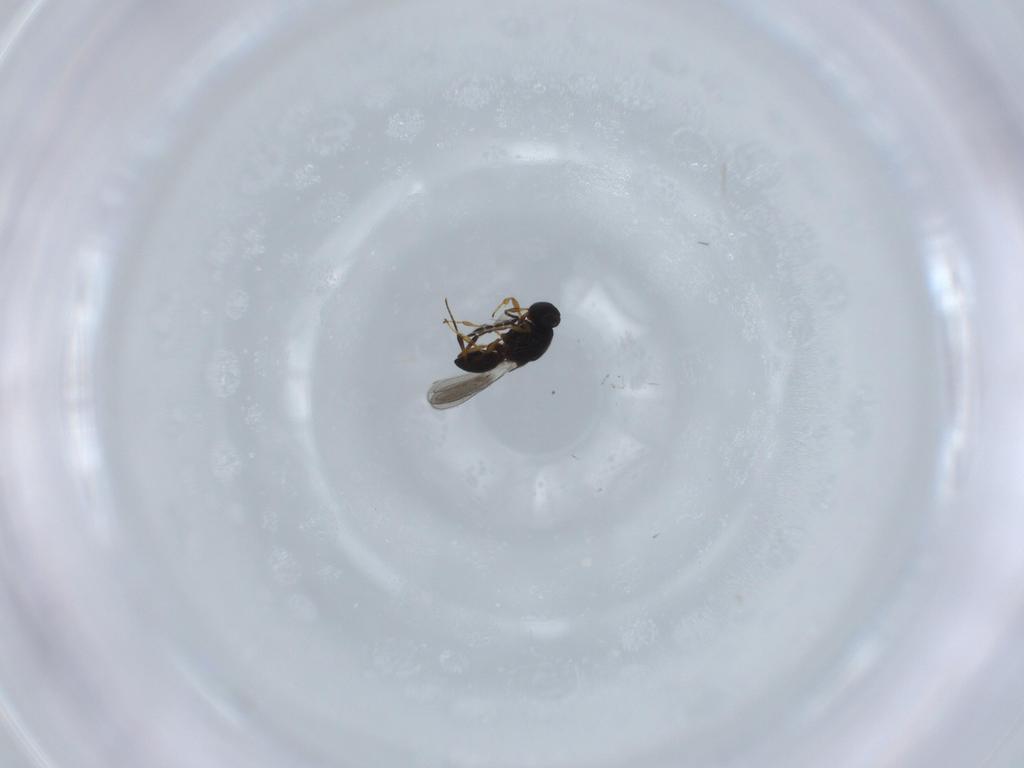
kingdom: Animalia
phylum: Arthropoda
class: Insecta
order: Hymenoptera
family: Platygastridae
